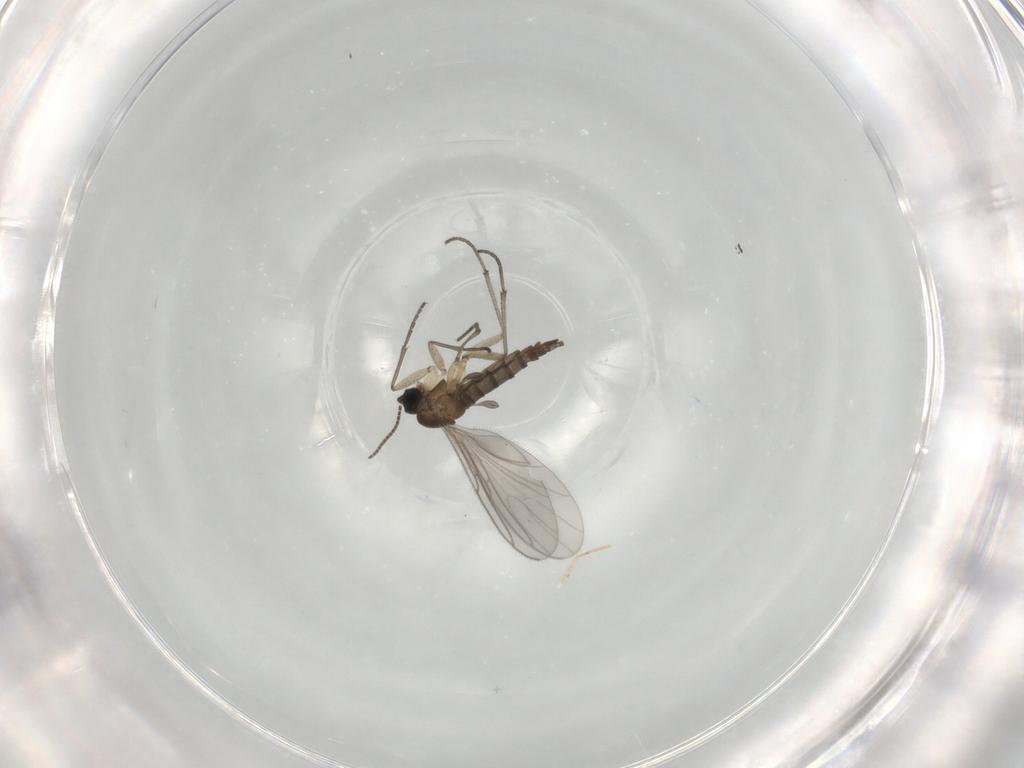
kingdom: Animalia
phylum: Arthropoda
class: Insecta
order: Diptera
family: Sciaridae
